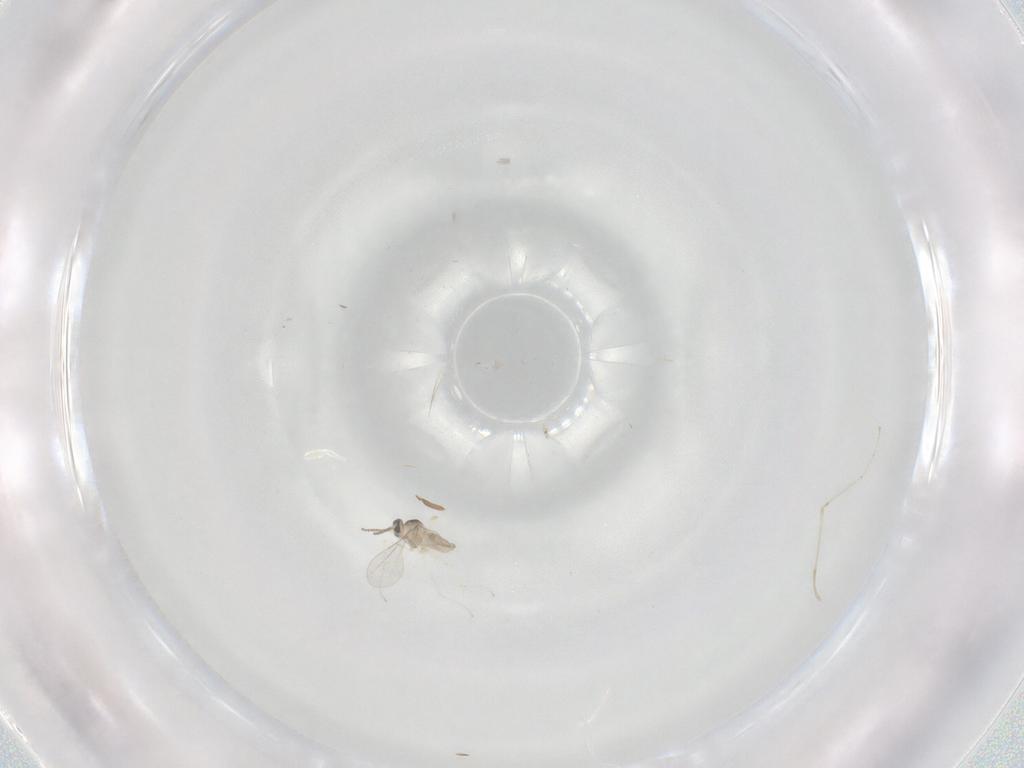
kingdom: Animalia
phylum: Arthropoda
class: Insecta
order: Diptera
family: Cecidomyiidae
